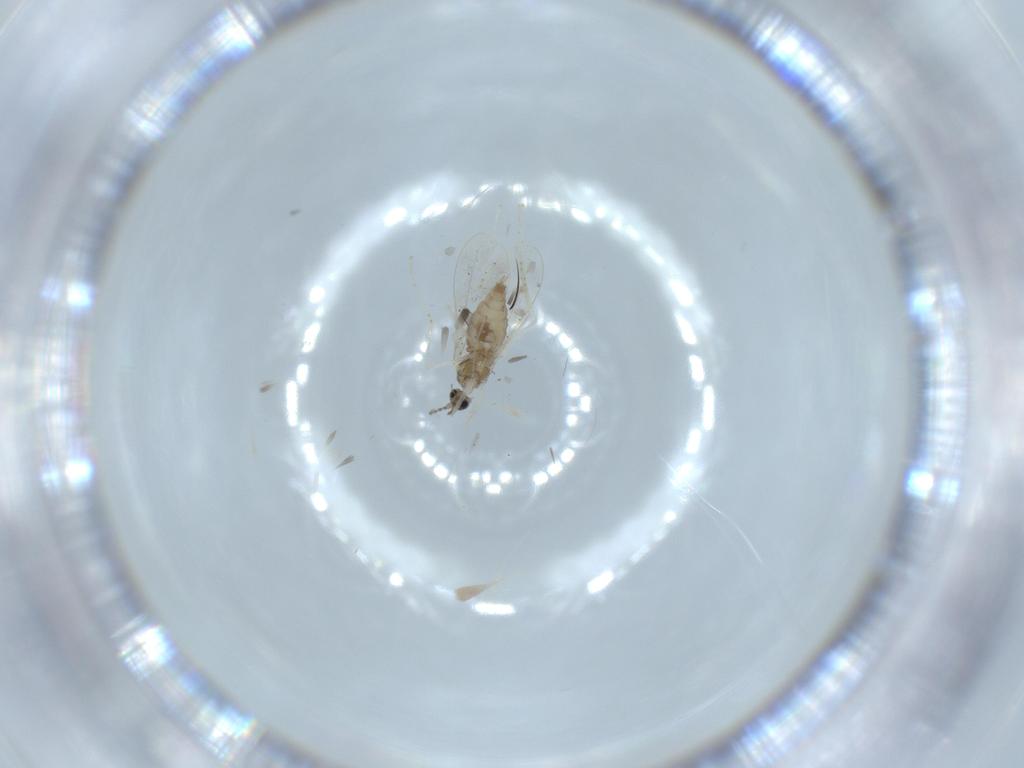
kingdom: Animalia
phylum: Arthropoda
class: Insecta
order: Diptera
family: Cecidomyiidae
